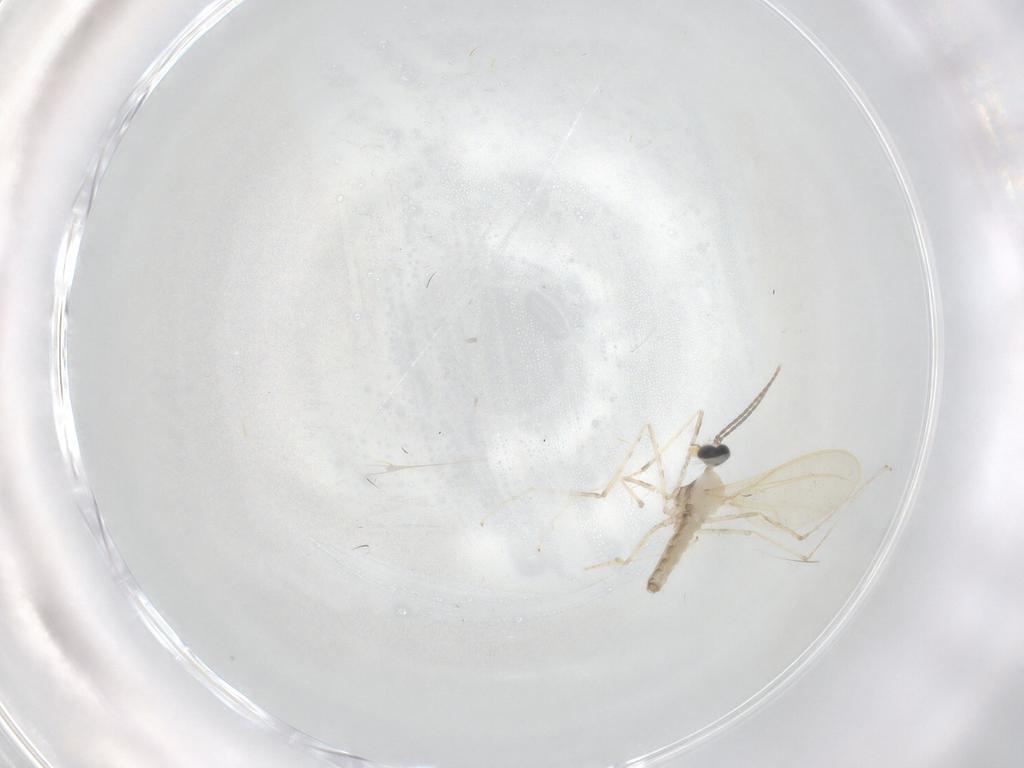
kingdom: Animalia
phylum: Arthropoda
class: Insecta
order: Diptera
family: Cecidomyiidae
